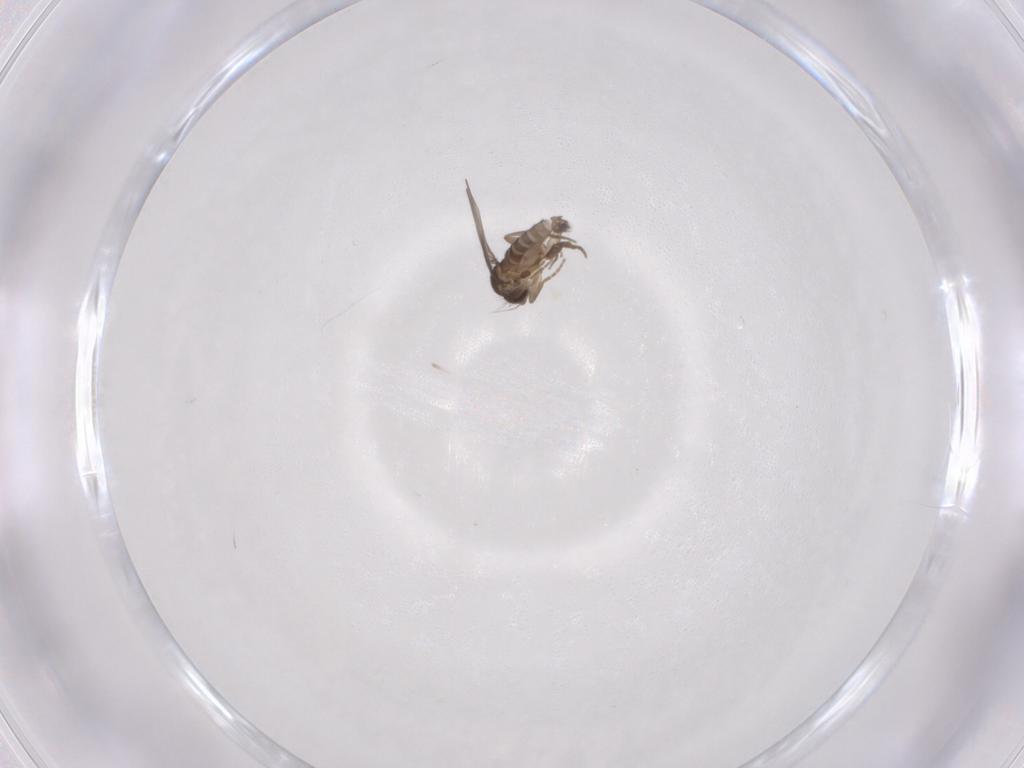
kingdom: Animalia
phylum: Arthropoda
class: Insecta
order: Diptera
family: Phoridae
